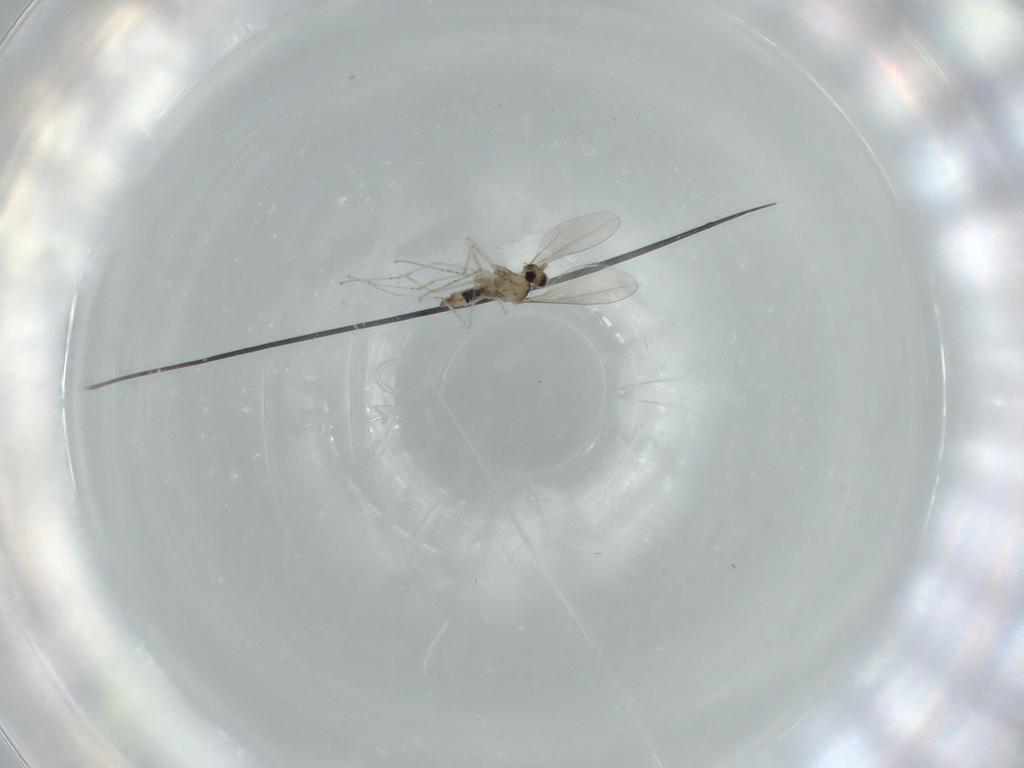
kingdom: Animalia
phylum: Arthropoda
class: Insecta
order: Diptera
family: Cecidomyiidae
